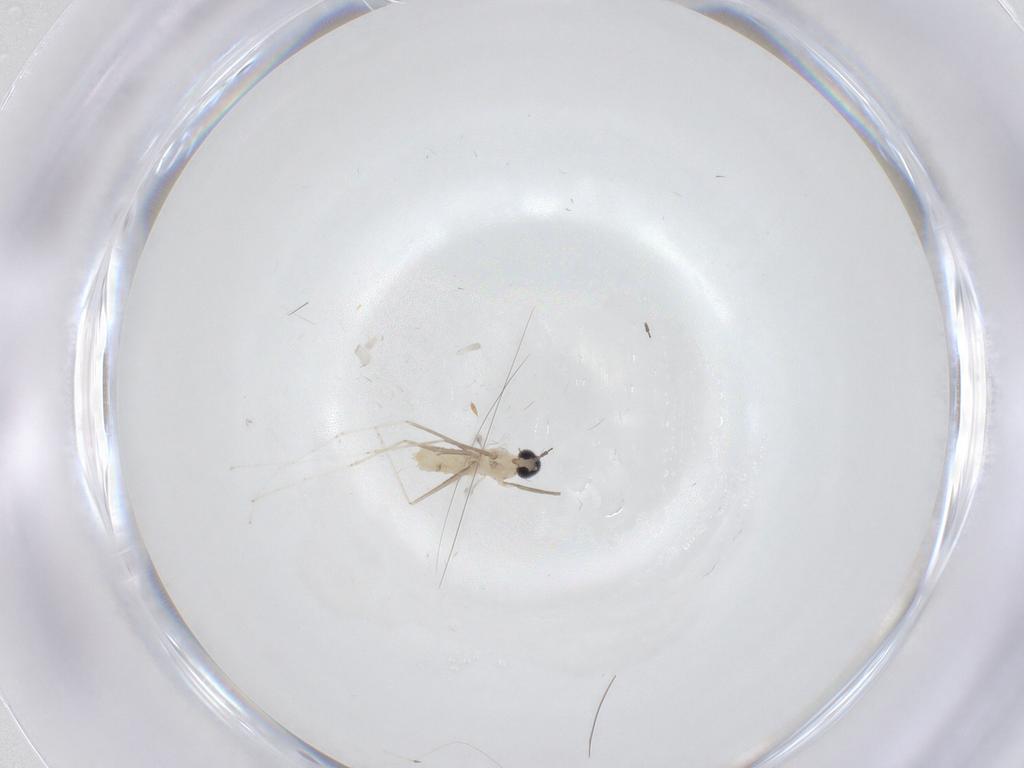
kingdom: Animalia
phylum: Arthropoda
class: Insecta
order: Diptera
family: Cecidomyiidae
